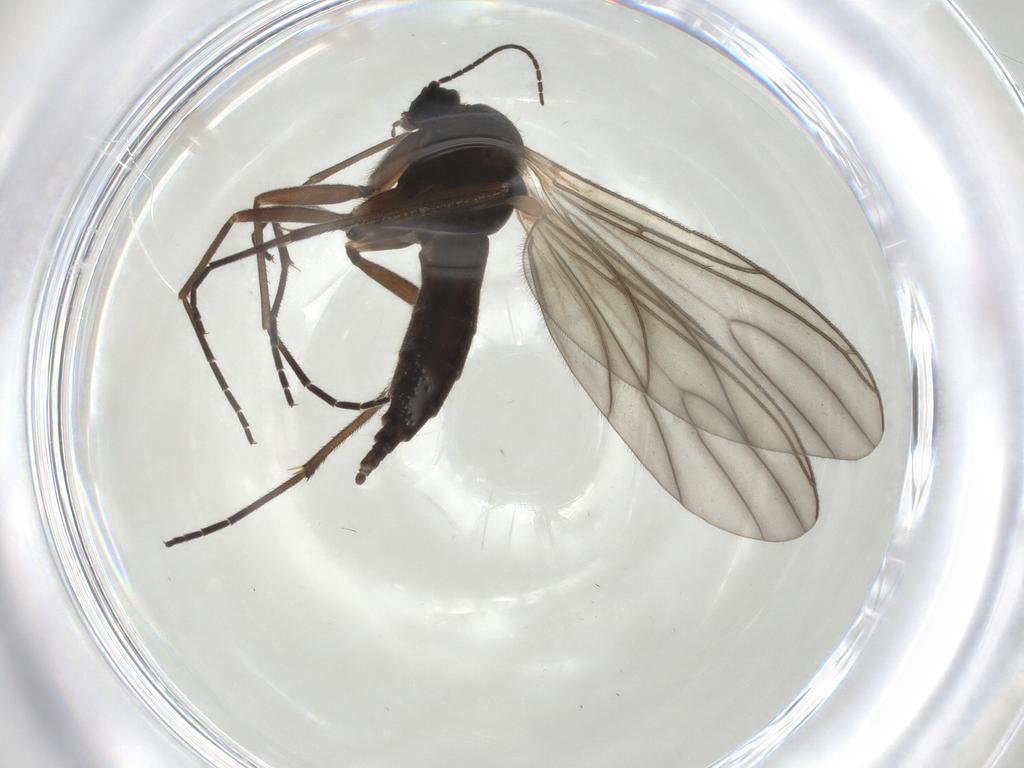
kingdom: Animalia
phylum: Arthropoda
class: Insecta
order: Diptera
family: Sciaridae
